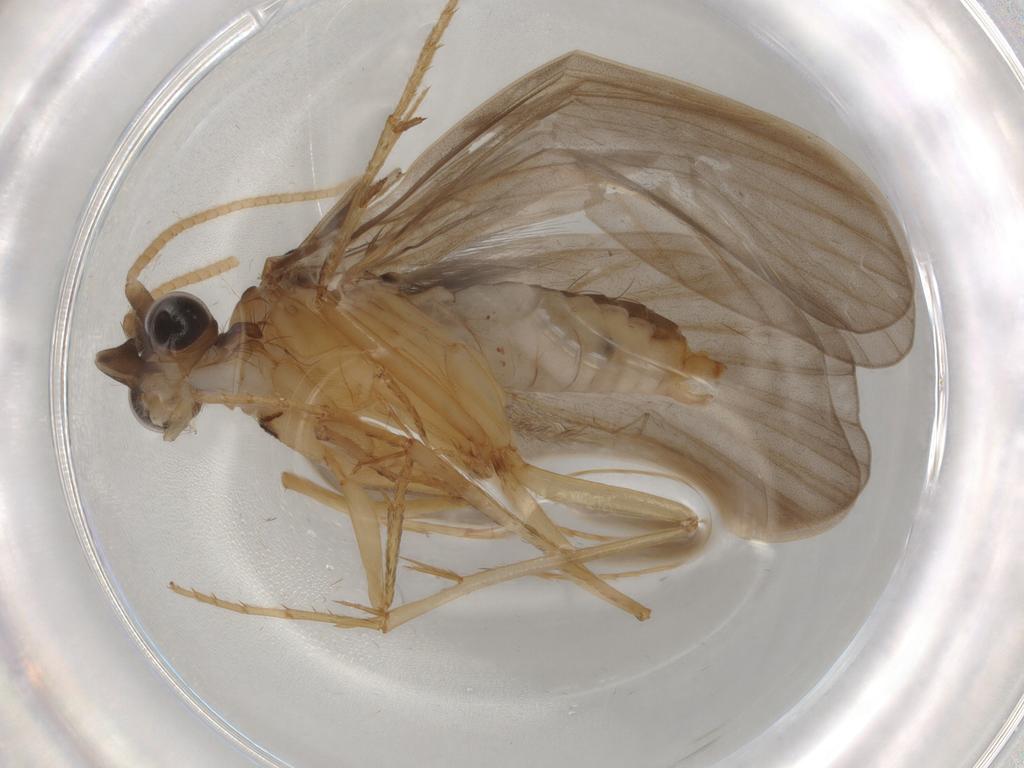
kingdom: Animalia
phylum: Arthropoda
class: Insecta
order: Trichoptera
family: Lepidostomatidae
